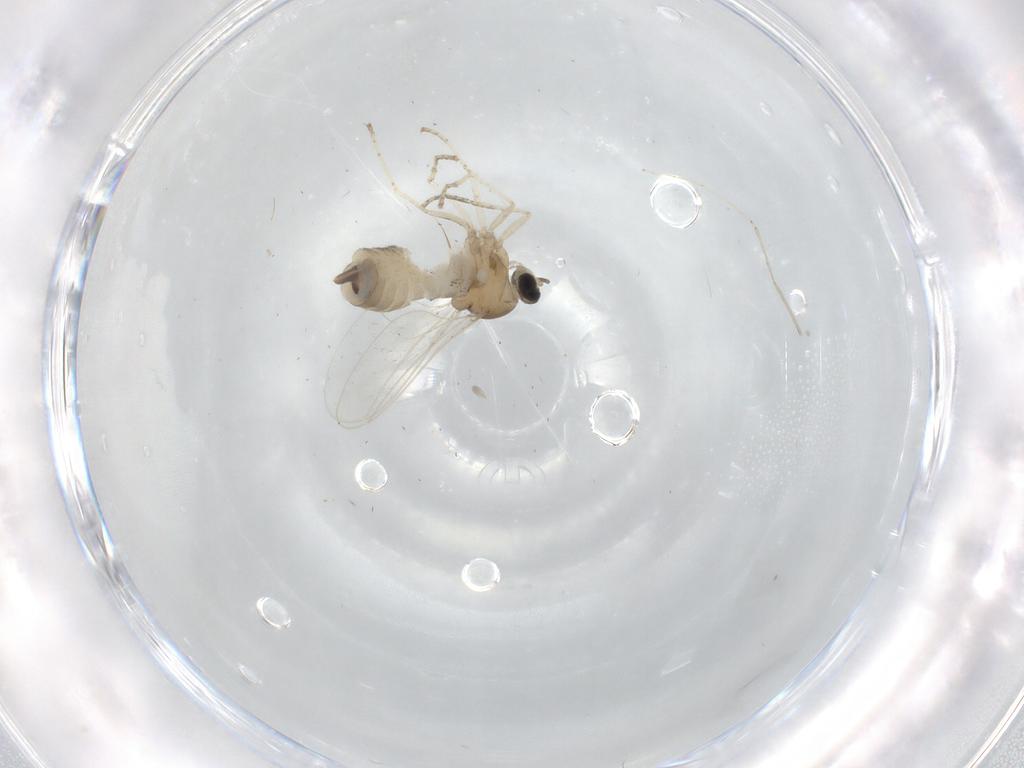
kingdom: Animalia
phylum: Arthropoda
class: Insecta
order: Diptera
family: Cecidomyiidae
